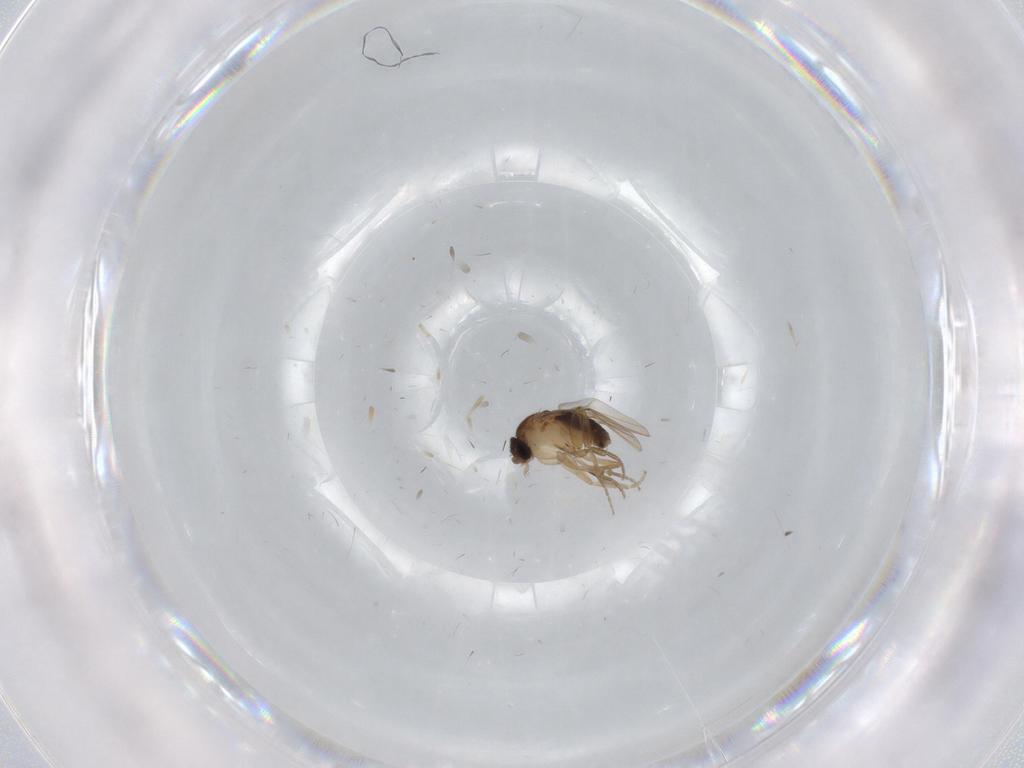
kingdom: Animalia
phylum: Arthropoda
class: Insecta
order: Diptera
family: Phoridae
